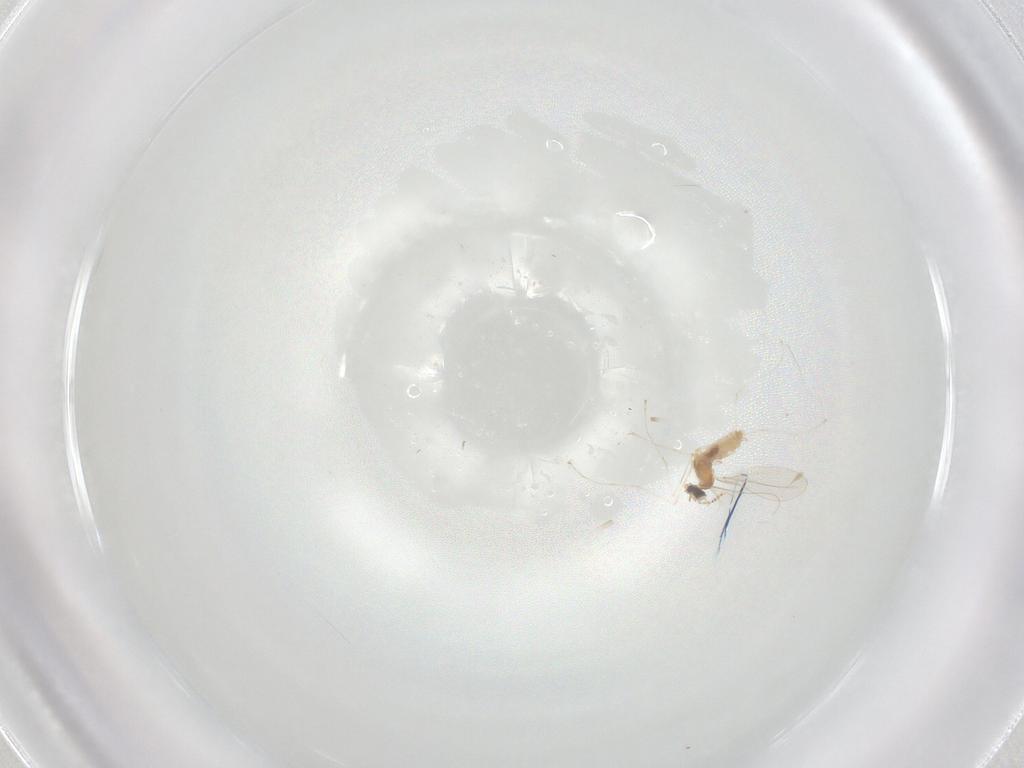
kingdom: Animalia
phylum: Arthropoda
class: Insecta
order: Diptera
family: Cecidomyiidae
